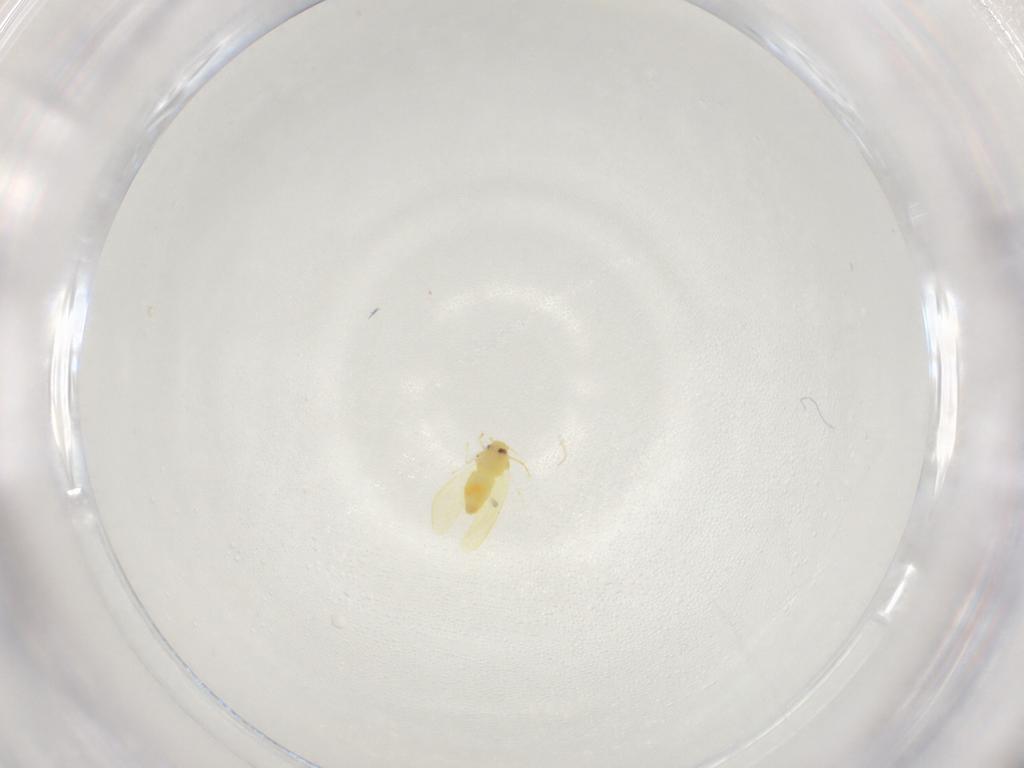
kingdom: Animalia
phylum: Arthropoda
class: Insecta
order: Hemiptera
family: Aleyrodidae
